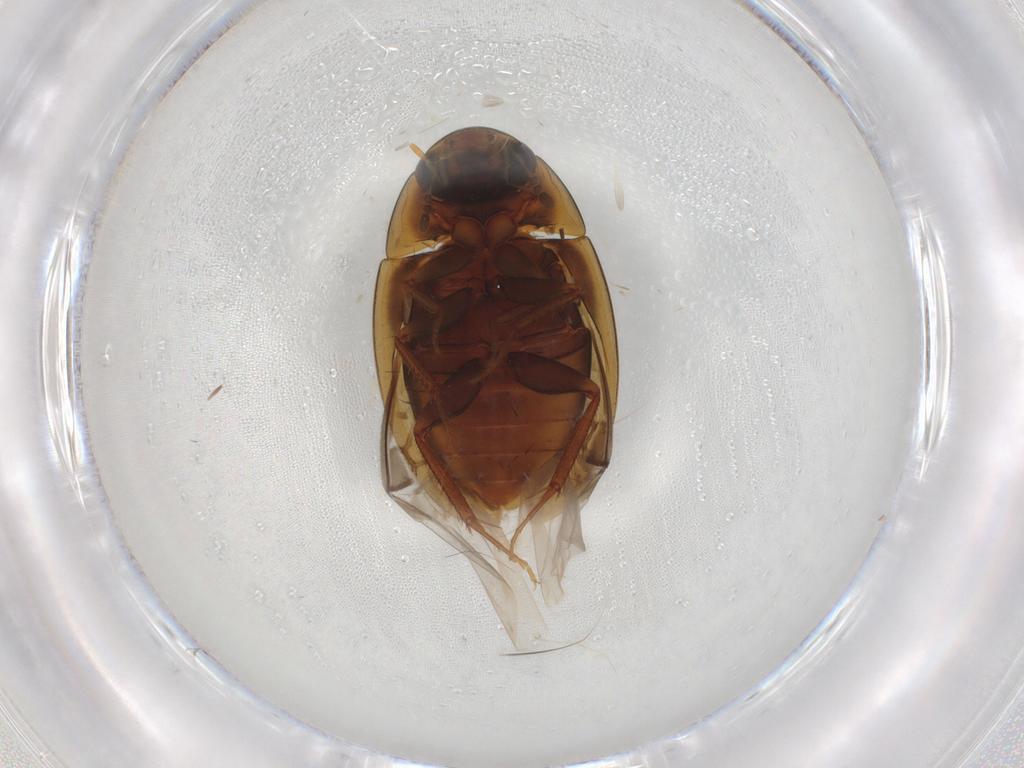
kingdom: Animalia
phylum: Arthropoda
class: Insecta
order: Coleoptera
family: Hydrophilidae
